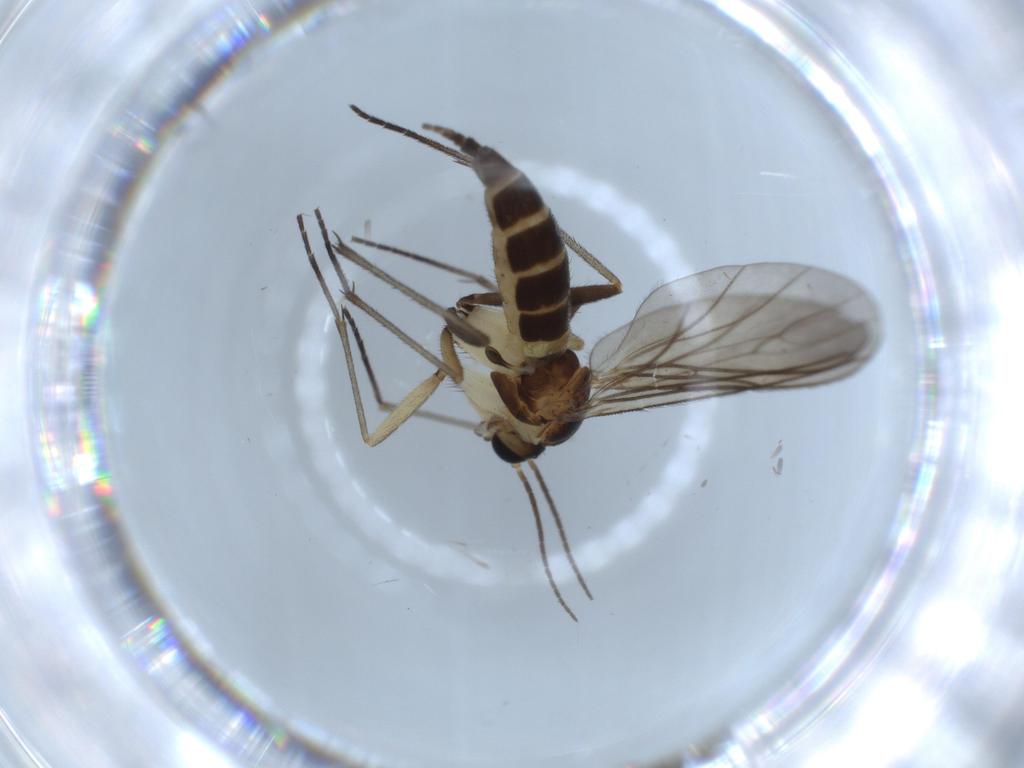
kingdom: Animalia
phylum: Arthropoda
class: Insecta
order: Diptera
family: Sciaridae
